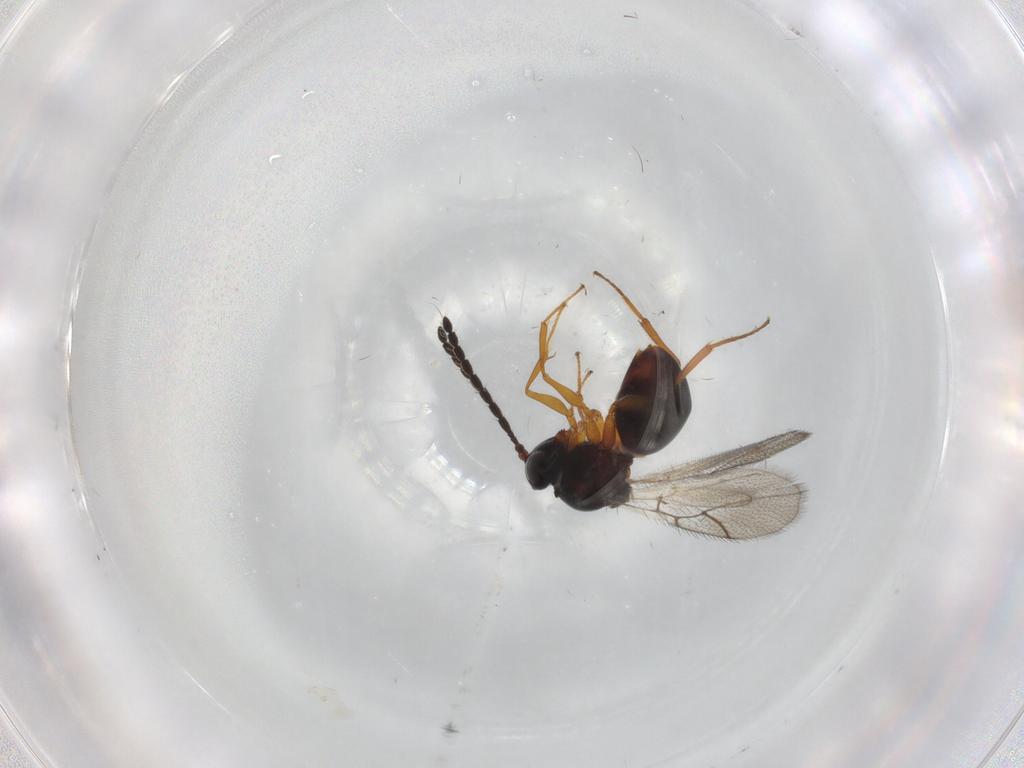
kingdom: Animalia
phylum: Arthropoda
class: Insecta
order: Hymenoptera
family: Figitidae
